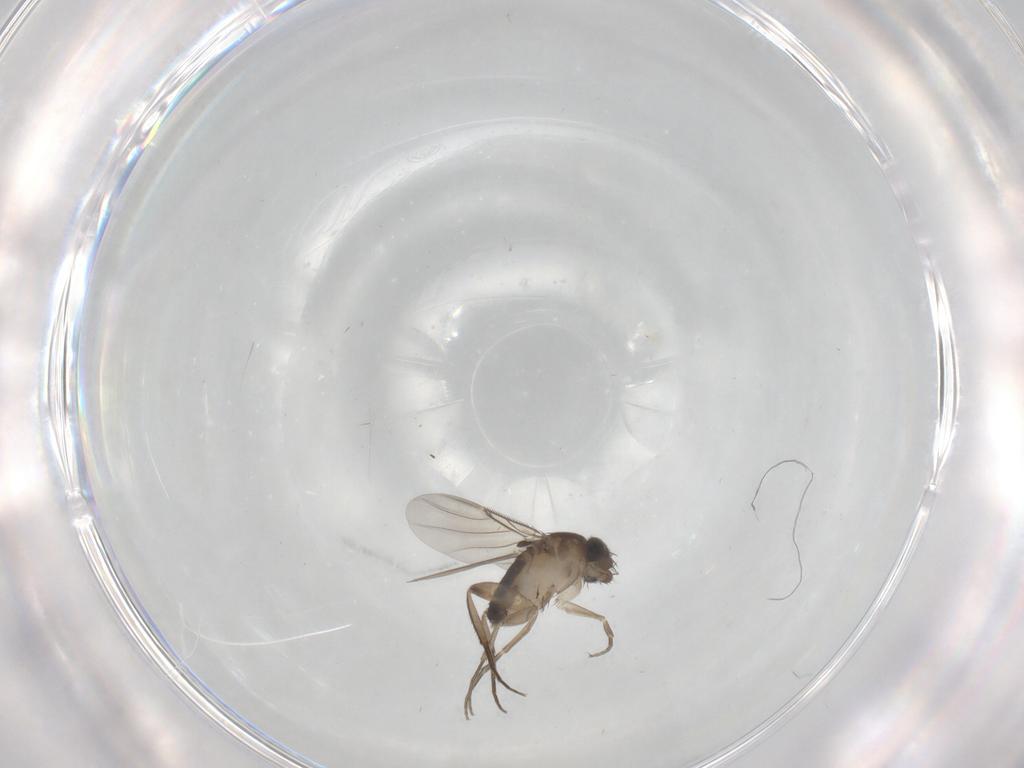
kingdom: Animalia
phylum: Arthropoda
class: Insecta
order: Diptera
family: Phoridae
